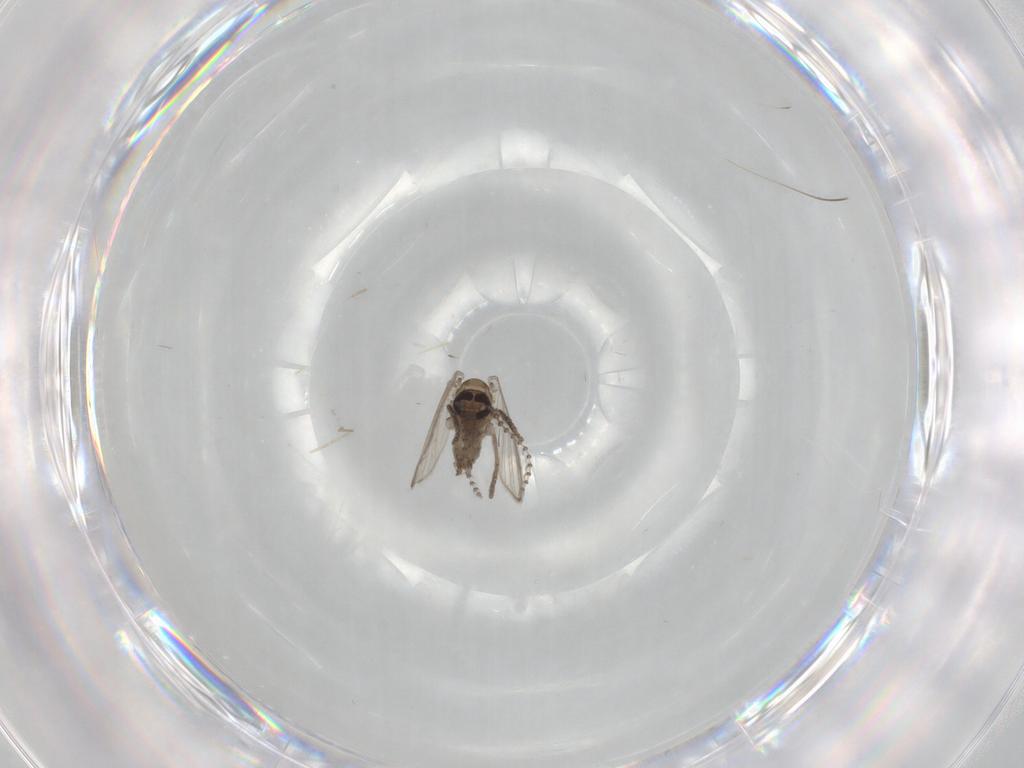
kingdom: Animalia
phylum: Arthropoda
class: Insecta
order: Diptera
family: Psychodidae
